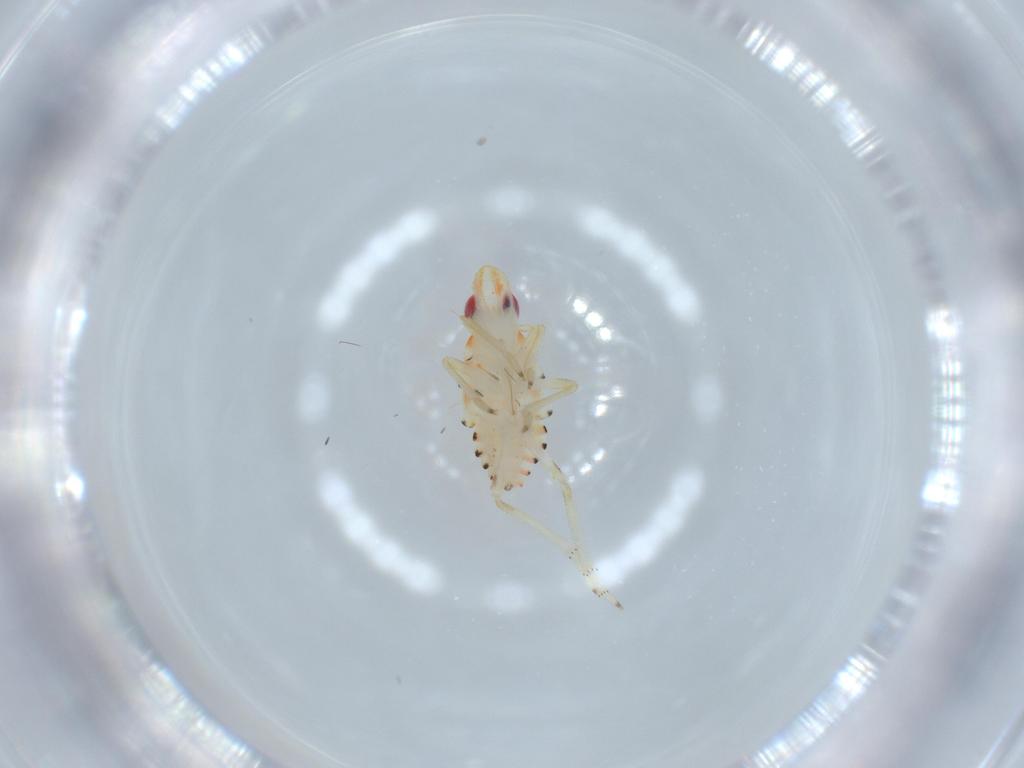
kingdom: Animalia
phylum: Arthropoda
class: Insecta
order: Hemiptera
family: Tropiduchidae
